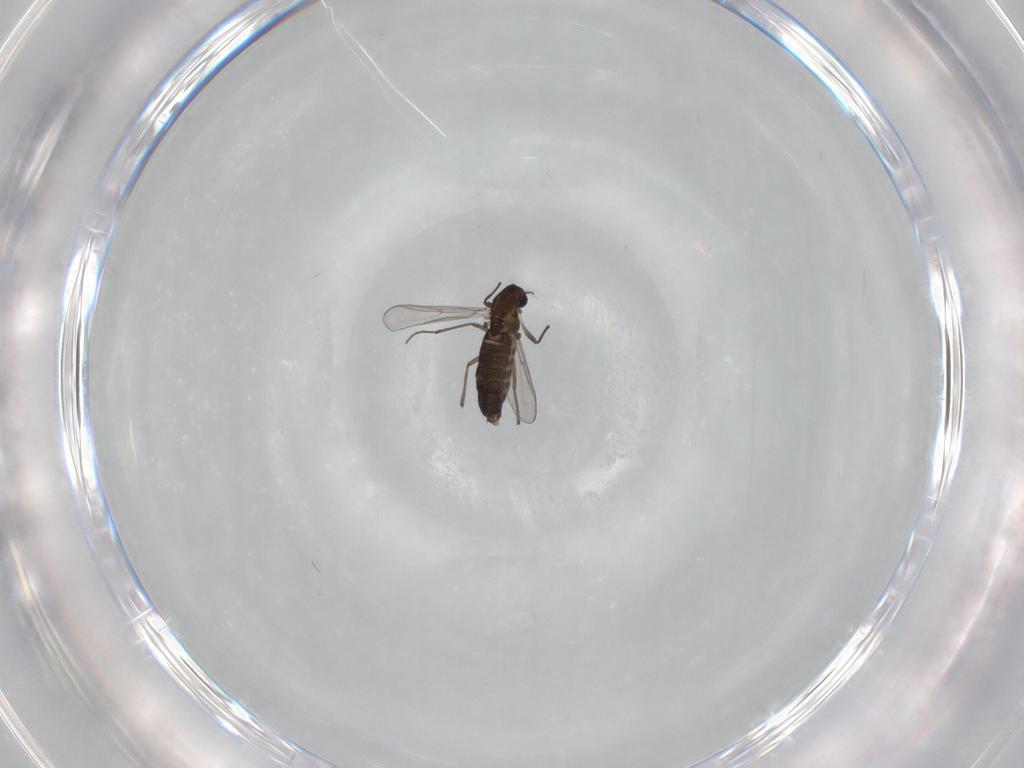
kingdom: Animalia
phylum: Arthropoda
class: Insecta
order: Diptera
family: Chironomidae
